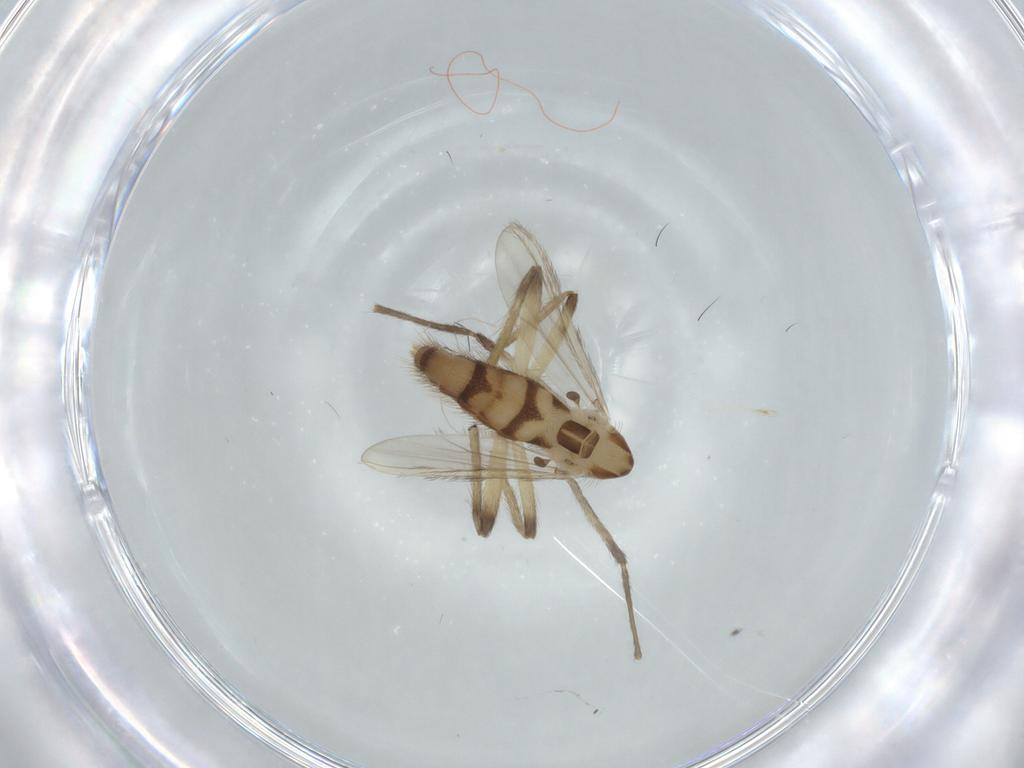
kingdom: Animalia
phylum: Arthropoda
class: Insecta
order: Diptera
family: Chironomidae
